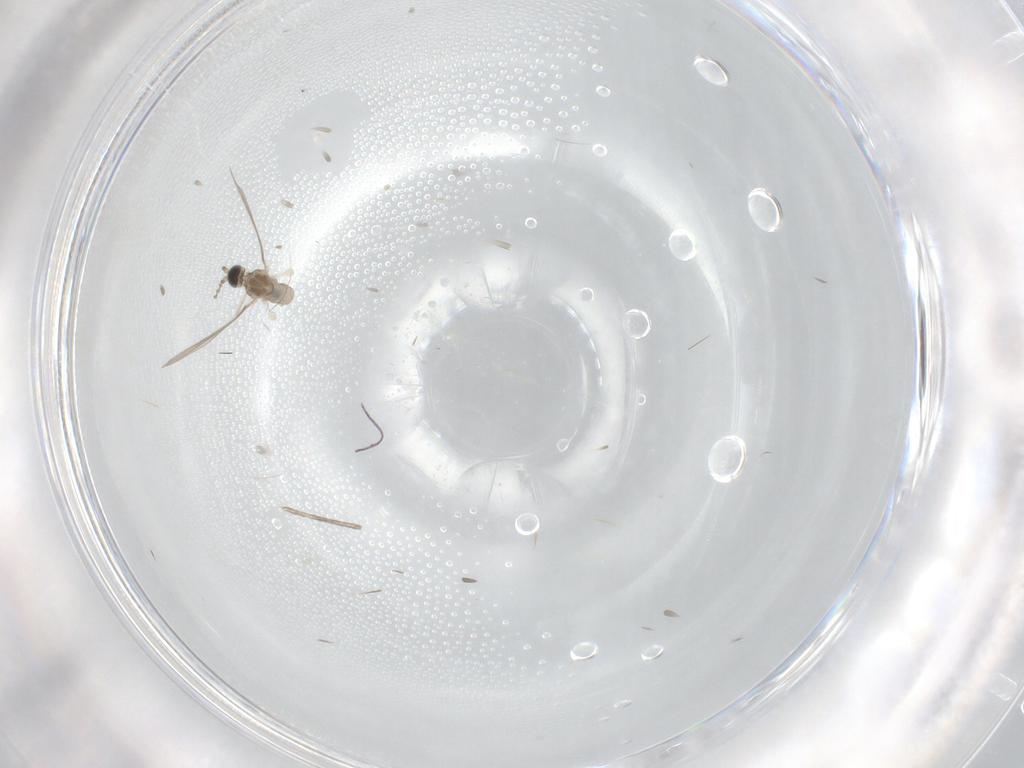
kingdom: Animalia
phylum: Arthropoda
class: Insecta
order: Diptera
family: Cecidomyiidae
